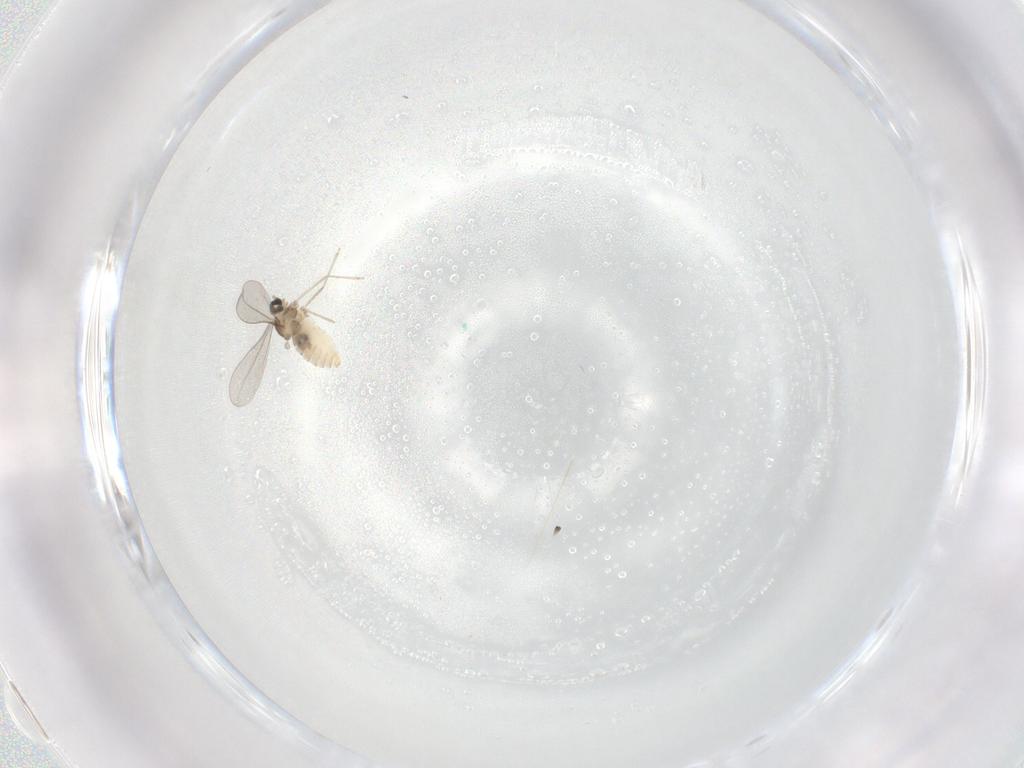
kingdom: Animalia
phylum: Arthropoda
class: Insecta
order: Diptera
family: Cecidomyiidae
